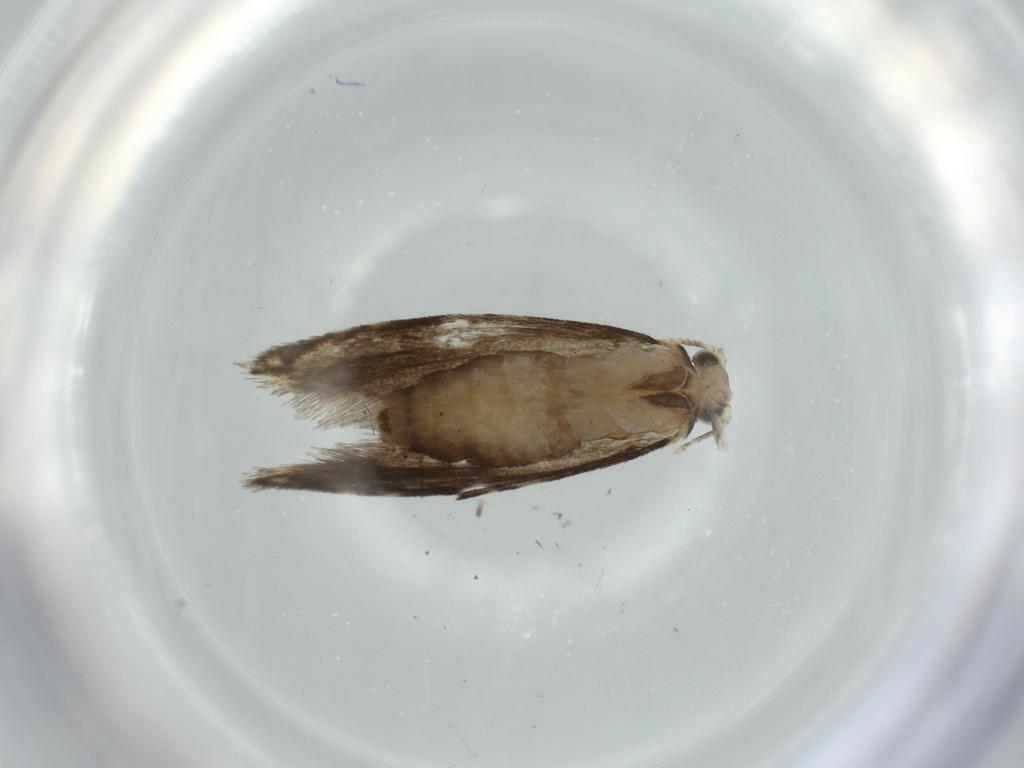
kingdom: Animalia
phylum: Arthropoda
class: Insecta
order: Lepidoptera
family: Tineidae
